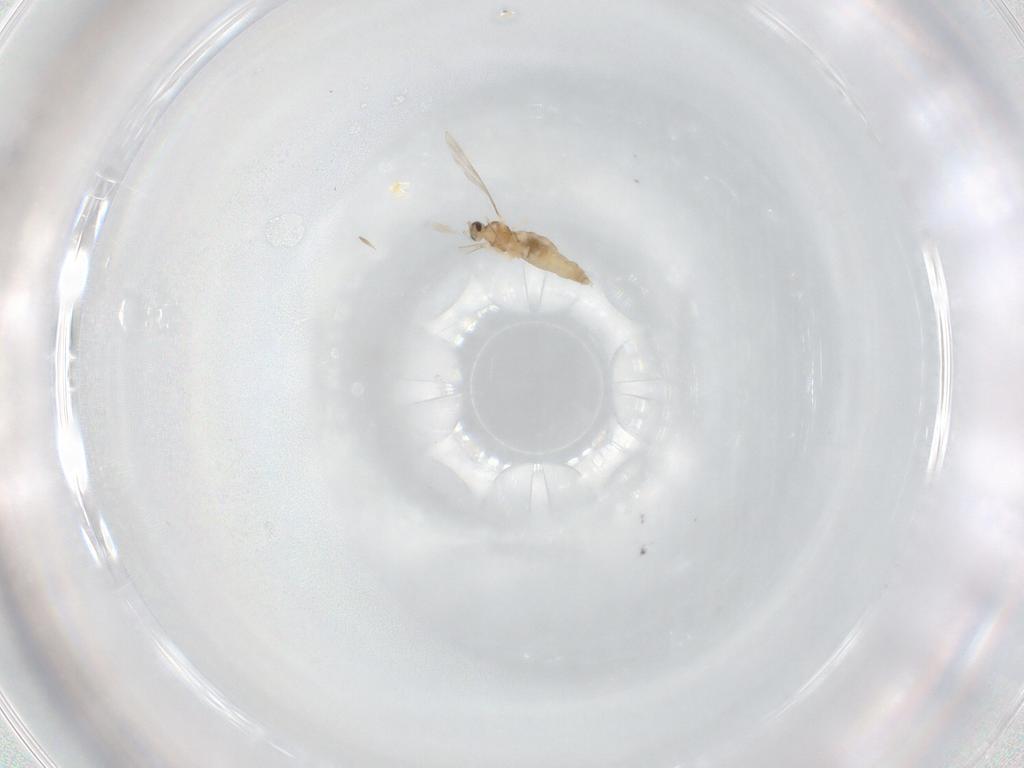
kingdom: Animalia
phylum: Arthropoda
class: Insecta
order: Diptera
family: Cecidomyiidae
